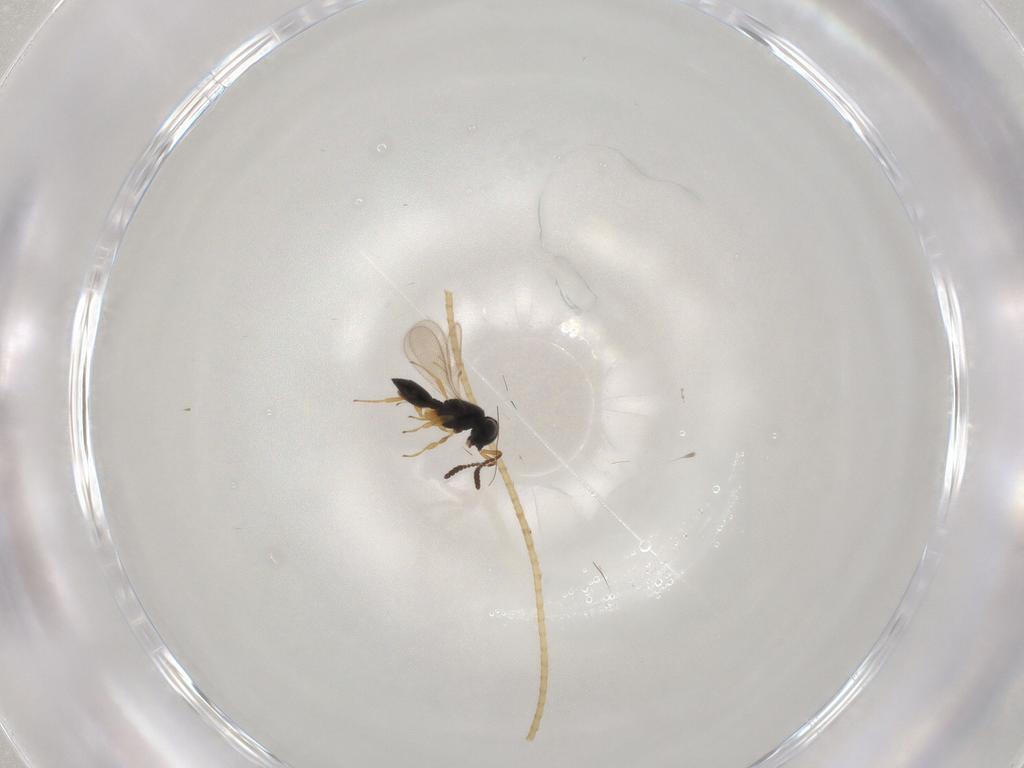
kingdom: Animalia
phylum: Arthropoda
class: Insecta
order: Hymenoptera
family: Scelionidae
